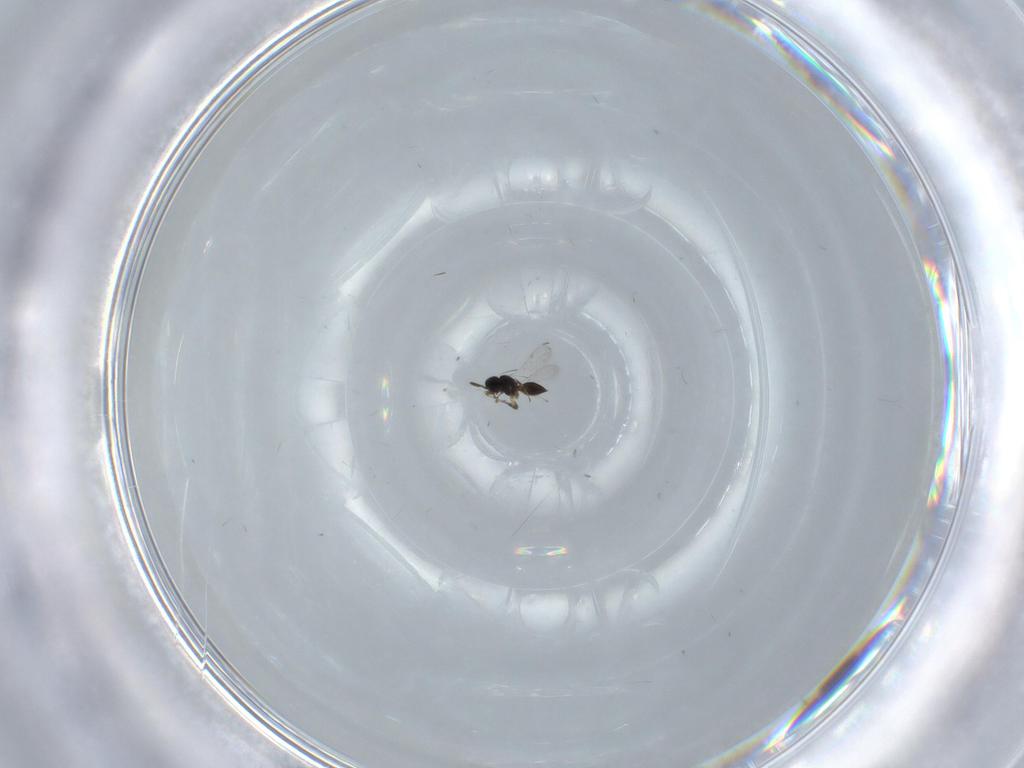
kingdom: Animalia
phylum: Arthropoda
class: Insecta
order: Hymenoptera
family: Scelionidae
